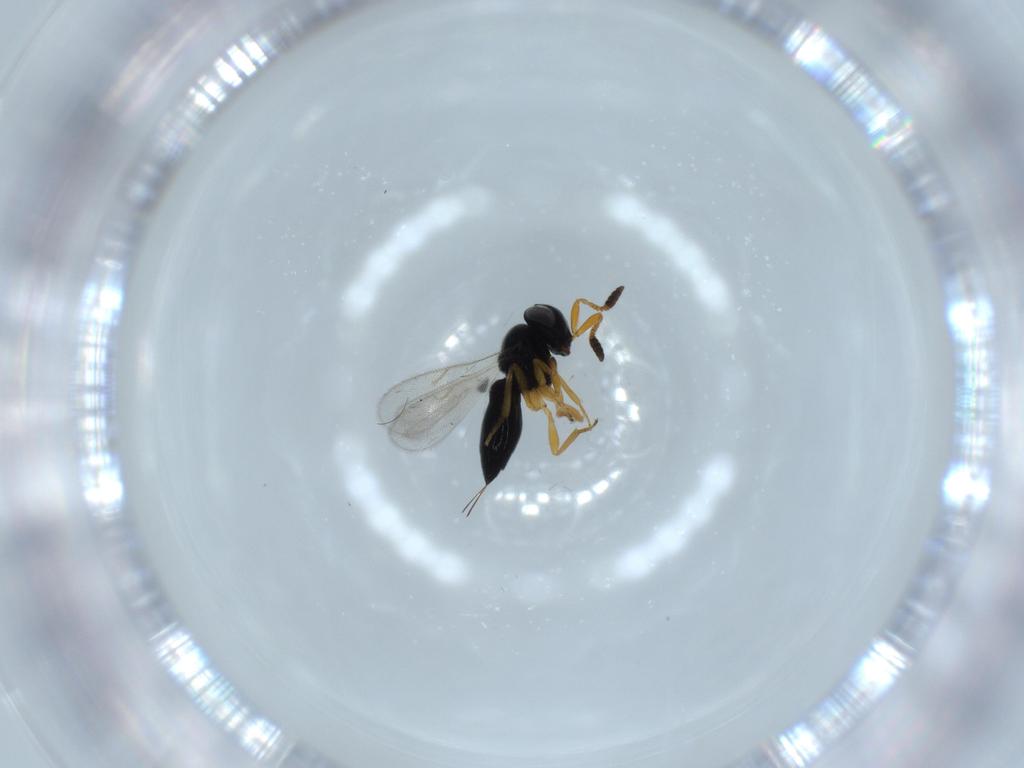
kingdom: Animalia
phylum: Arthropoda
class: Insecta
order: Hymenoptera
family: Scelionidae
